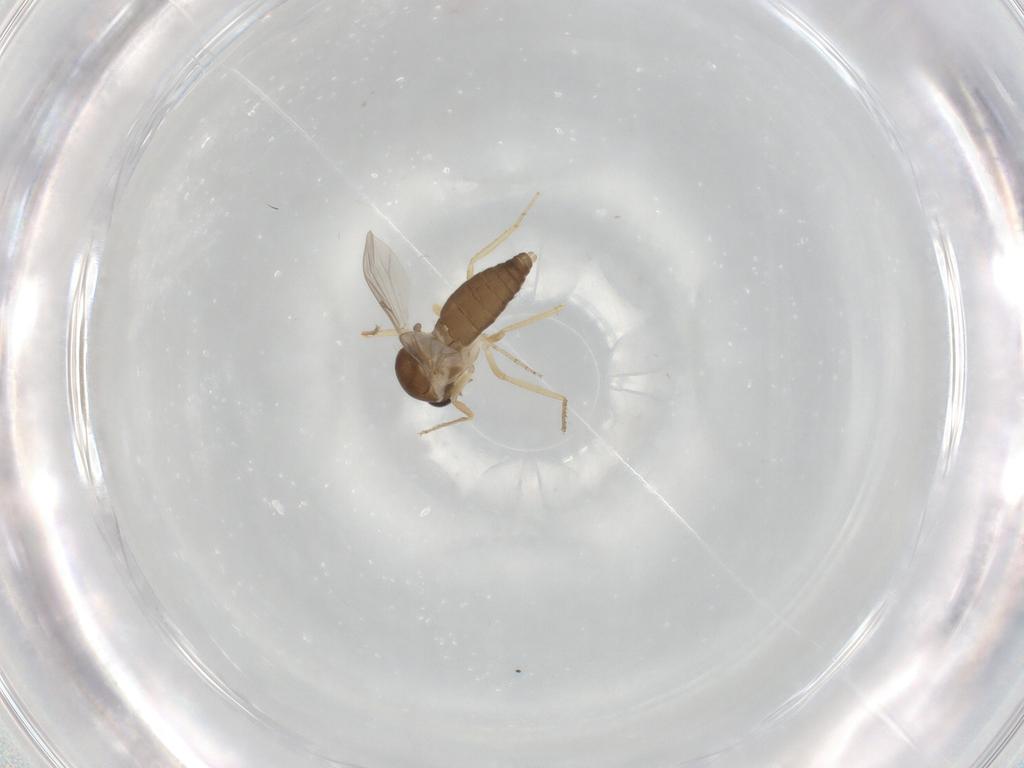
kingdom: Animalia
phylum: Arthropoda
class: Insecta
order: Diptera
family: Ceratopogonidae
